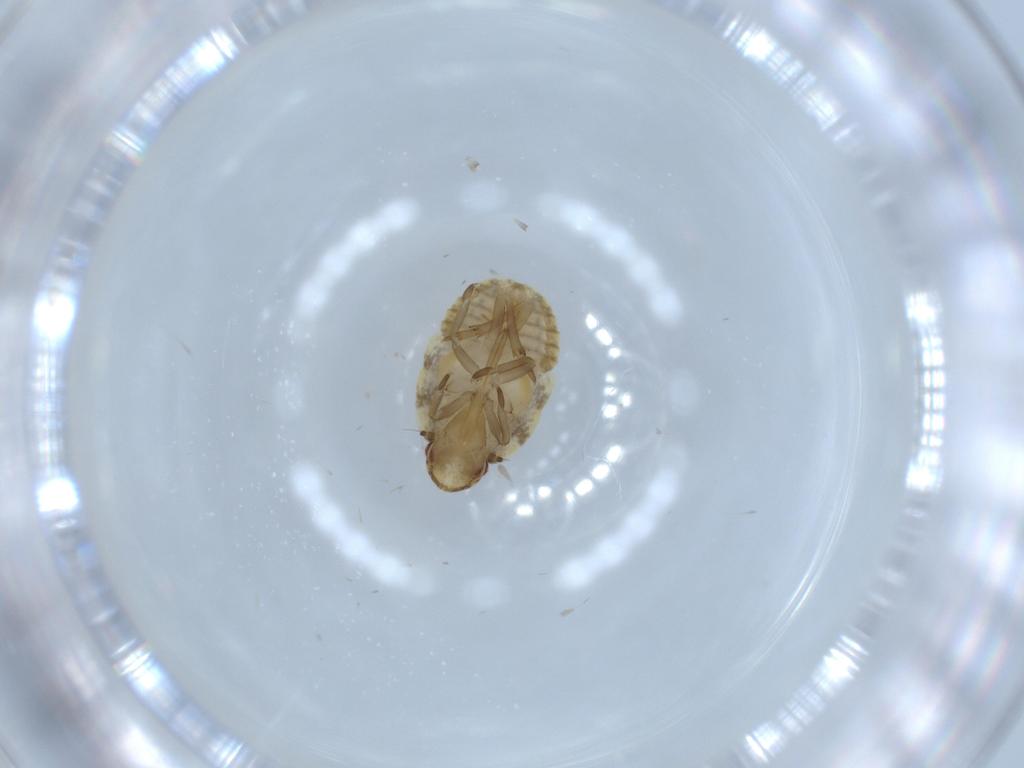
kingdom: Animalia
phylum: Arthropoda
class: Insecta
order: Hemiptera
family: Flatidae
